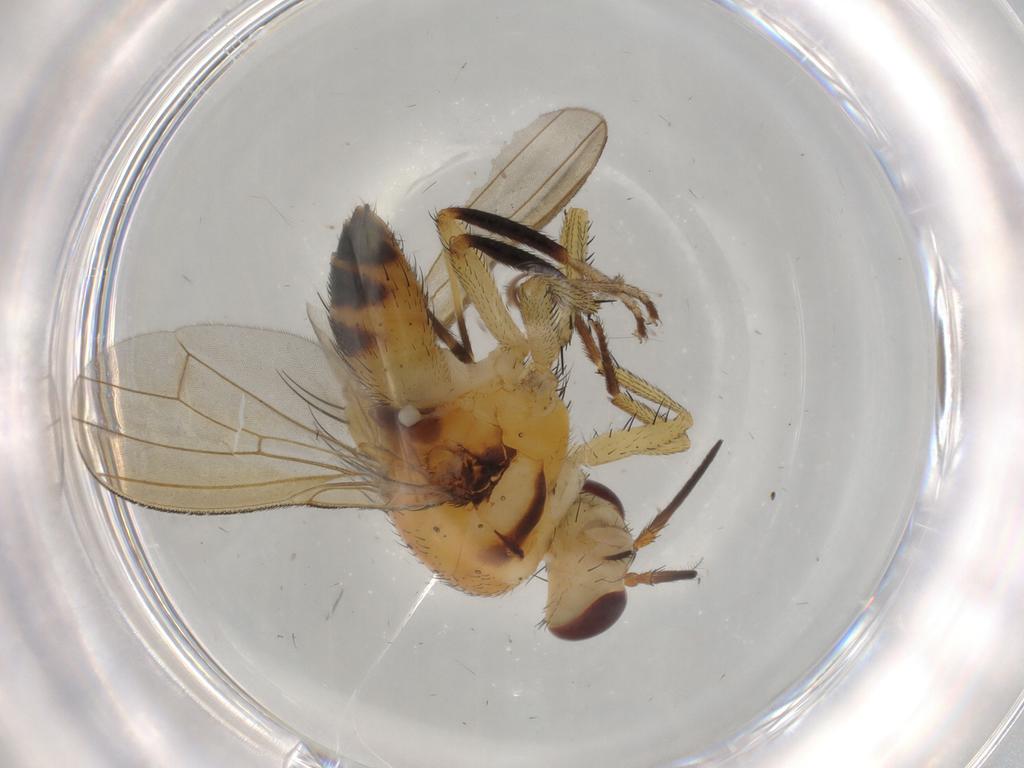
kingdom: Animalia
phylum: Arthropoda
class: Insecta
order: Diptera
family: Lauxaniidae
